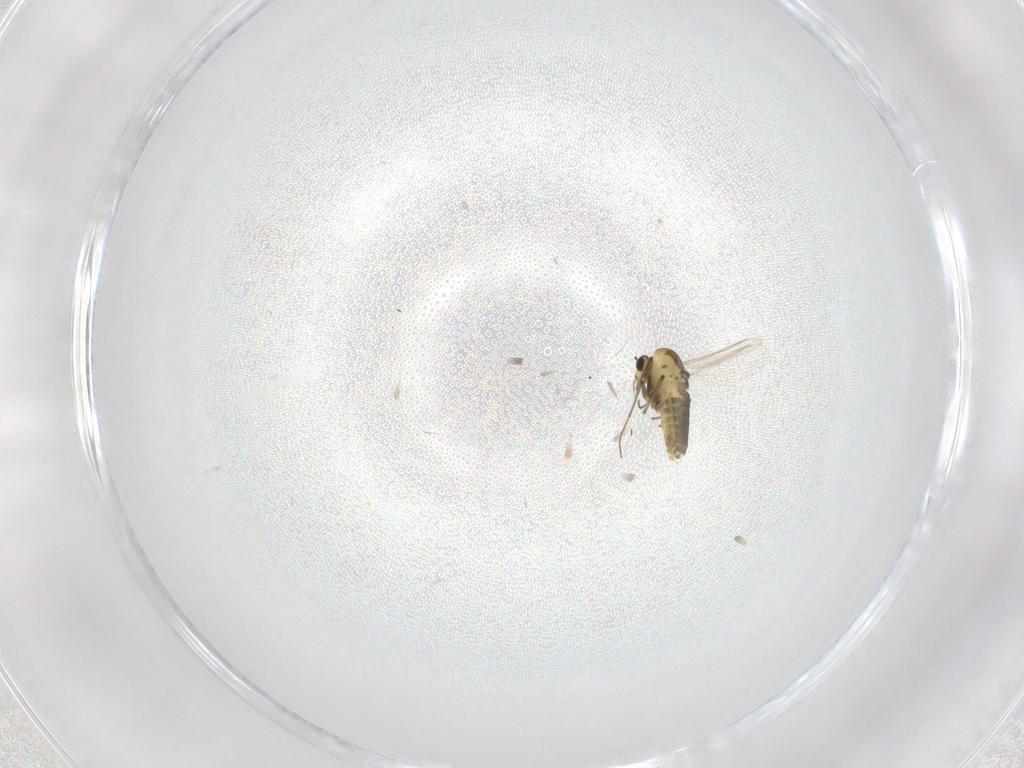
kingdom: Animalia
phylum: Arthropoda
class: Insecta
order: Diptera
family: Chironomidae
